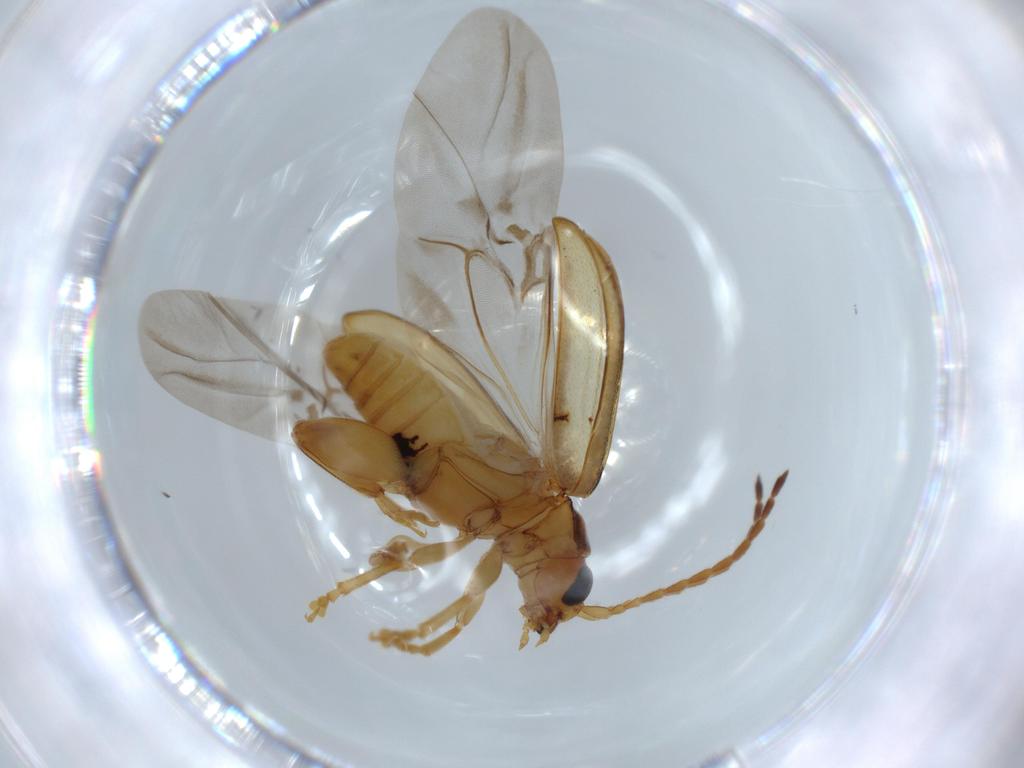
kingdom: Animalia
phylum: Arthropoda
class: Insecta
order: Coleoptera
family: Chrysomelidae
